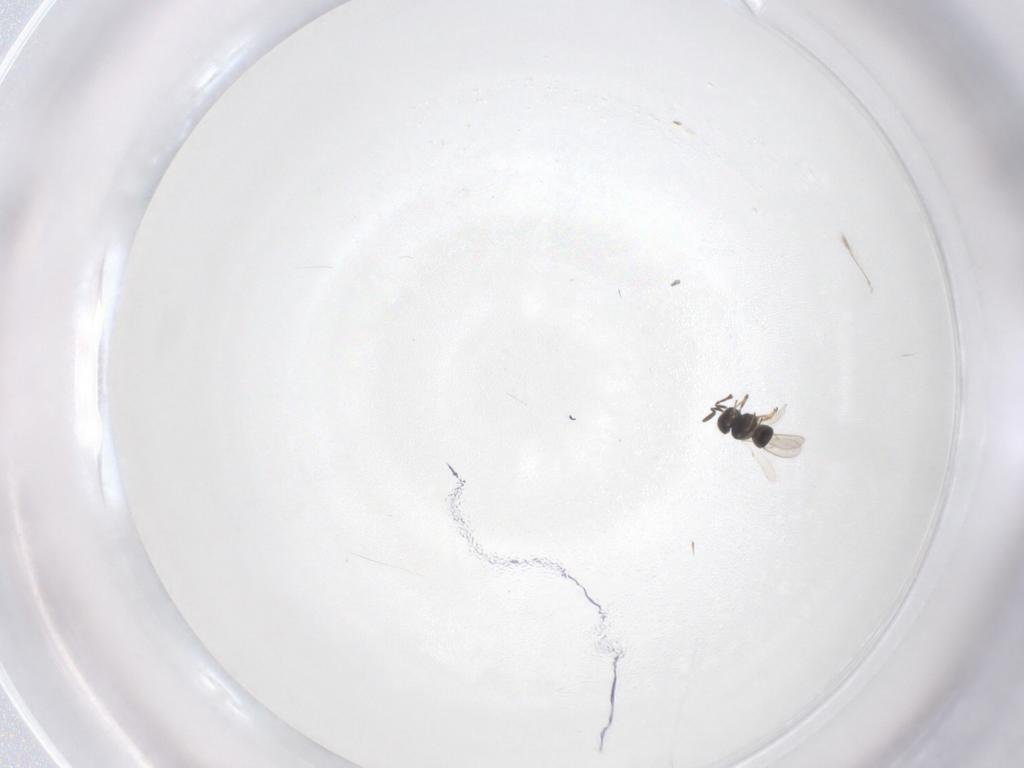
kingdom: Animalia
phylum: Arthropoda
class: Insecta
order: Hymenoptera
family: Scelionidae
